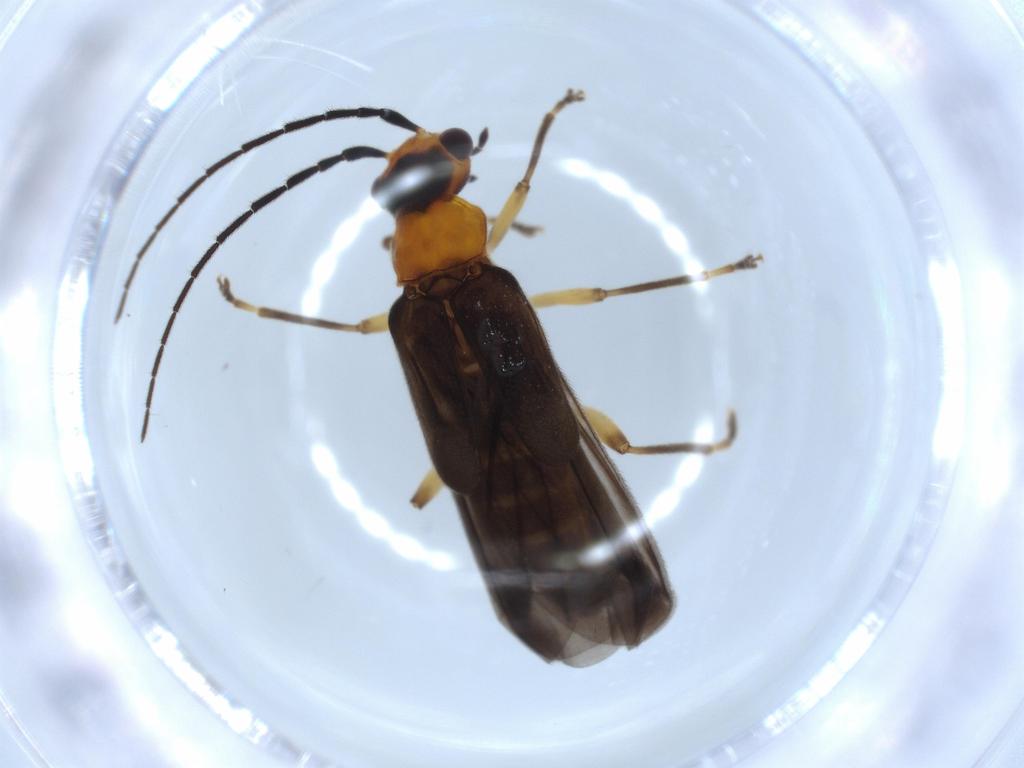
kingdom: Animalia
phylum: Arthropoda
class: Insecta
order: Coleoptera
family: Cantharidae
